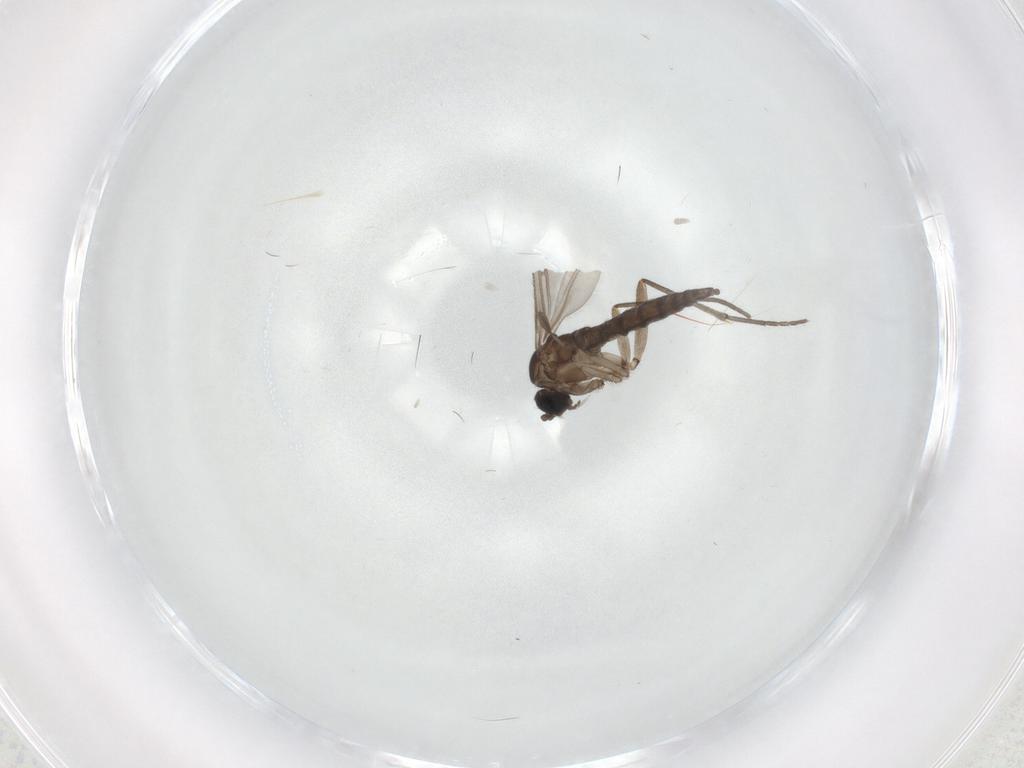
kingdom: Animalia
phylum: Arthropoda
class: Insecta
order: Diptera
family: Sciaridae
